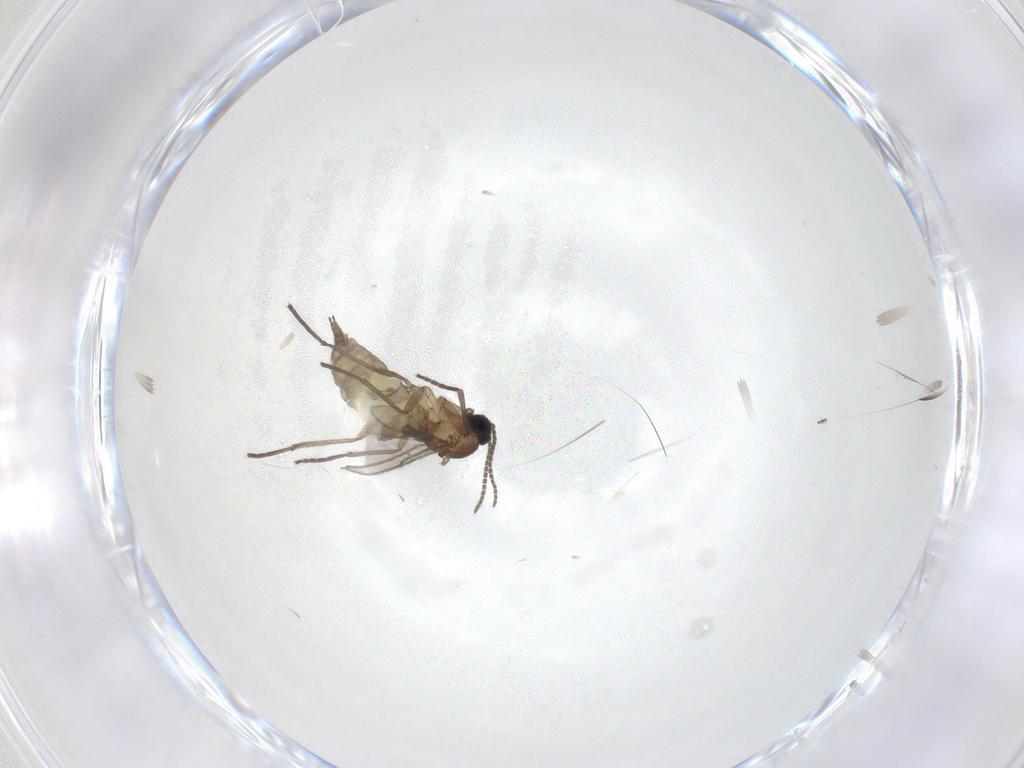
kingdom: Animalia
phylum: Arthropoda
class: Insecta
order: Diptera
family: Sciaridae
